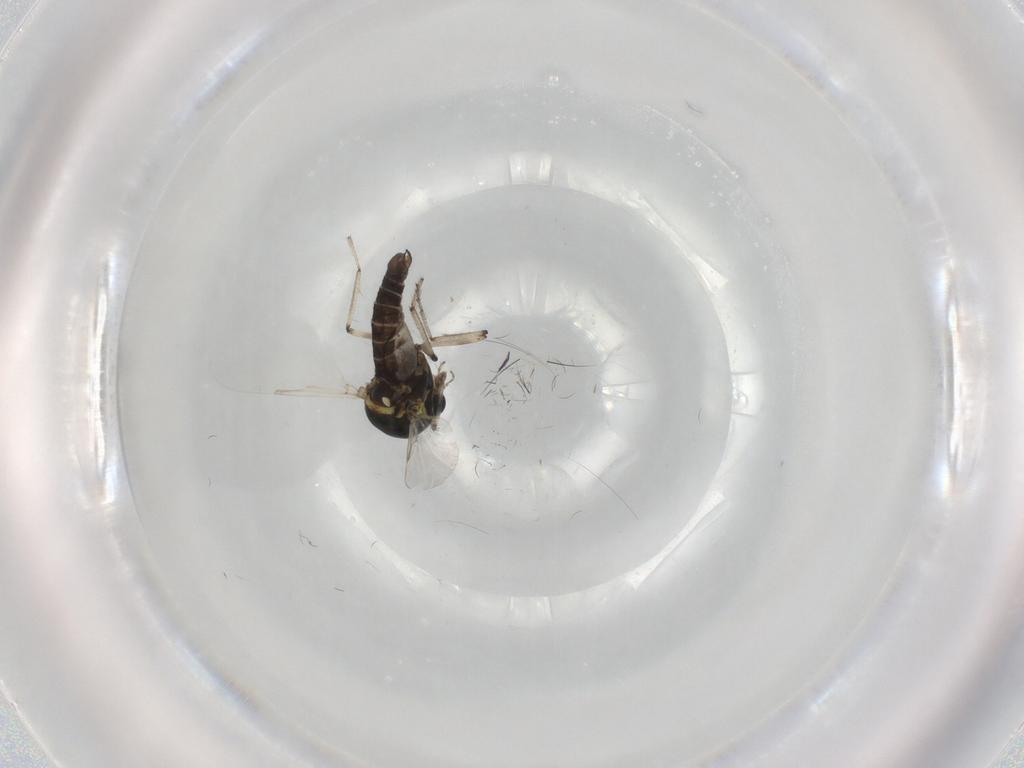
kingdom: Animalia
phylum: Arthropoda
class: Insecta
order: Diptera
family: Ceratopogonidae
